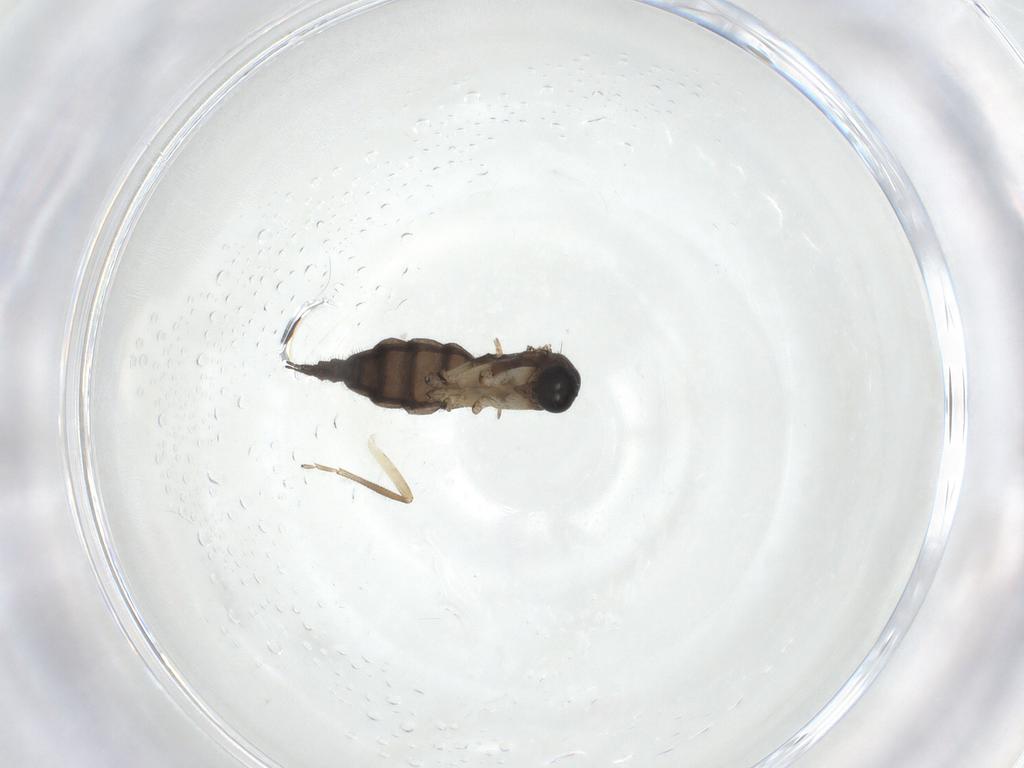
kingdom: Animalia
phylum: Arthropoda
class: Insecta
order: Diptera
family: Sciaridae
